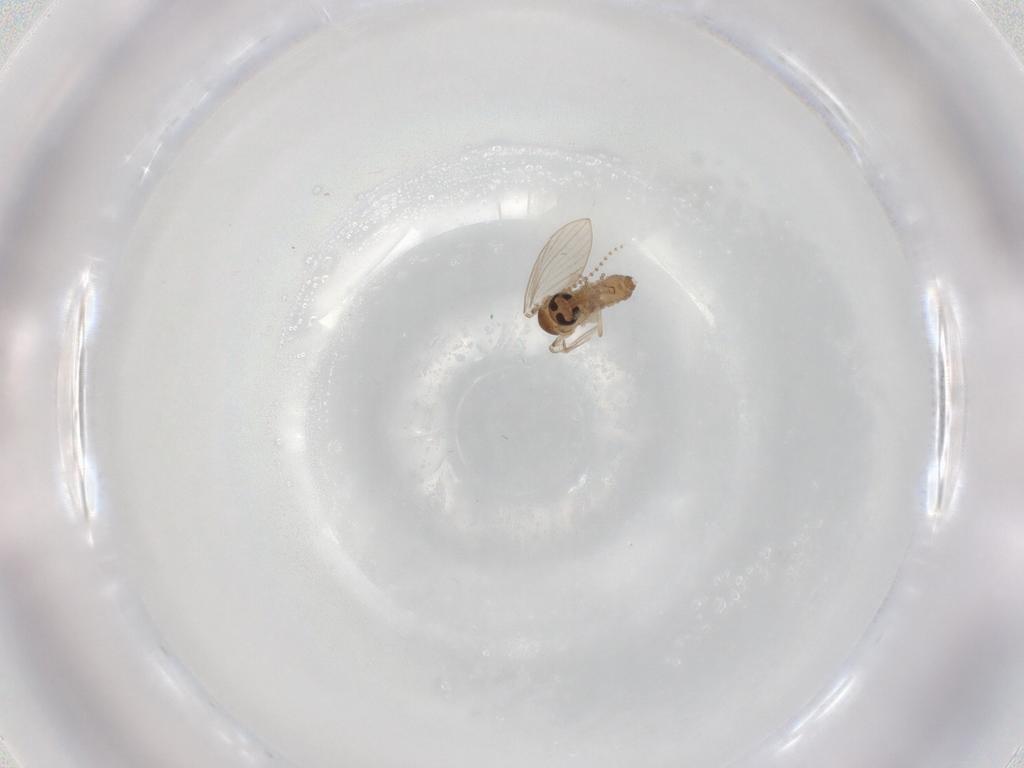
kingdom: Animalia
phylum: Arthropoda
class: Insecta
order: Diptera
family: Psychodidae
